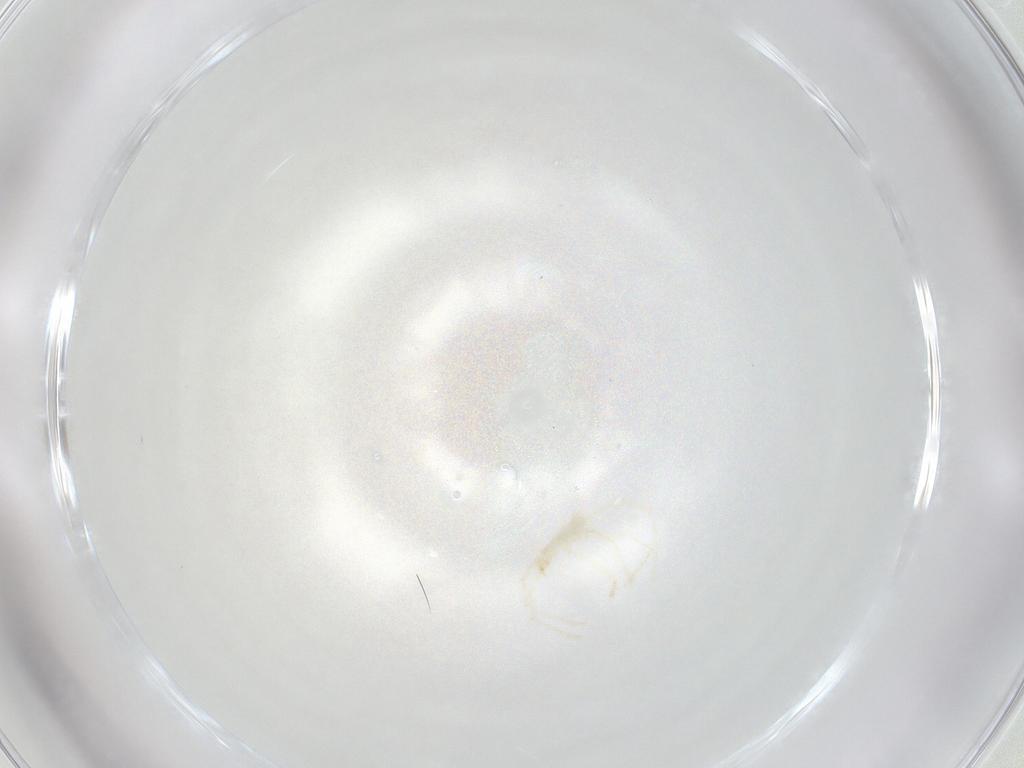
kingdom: Animalia
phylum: Arthropoda
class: Arachnida
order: Trombidiformes
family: Erythraeidae
